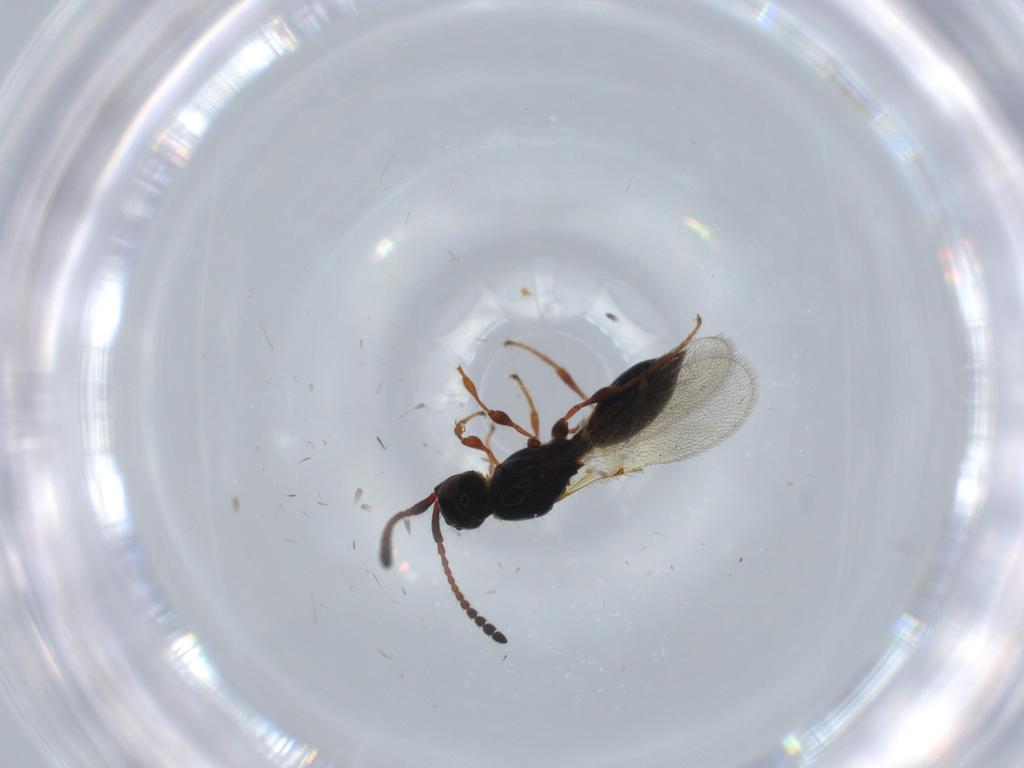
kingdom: Animalia
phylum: Arthropoda
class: Insecta
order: Hymenoptera
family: Diapriidae
